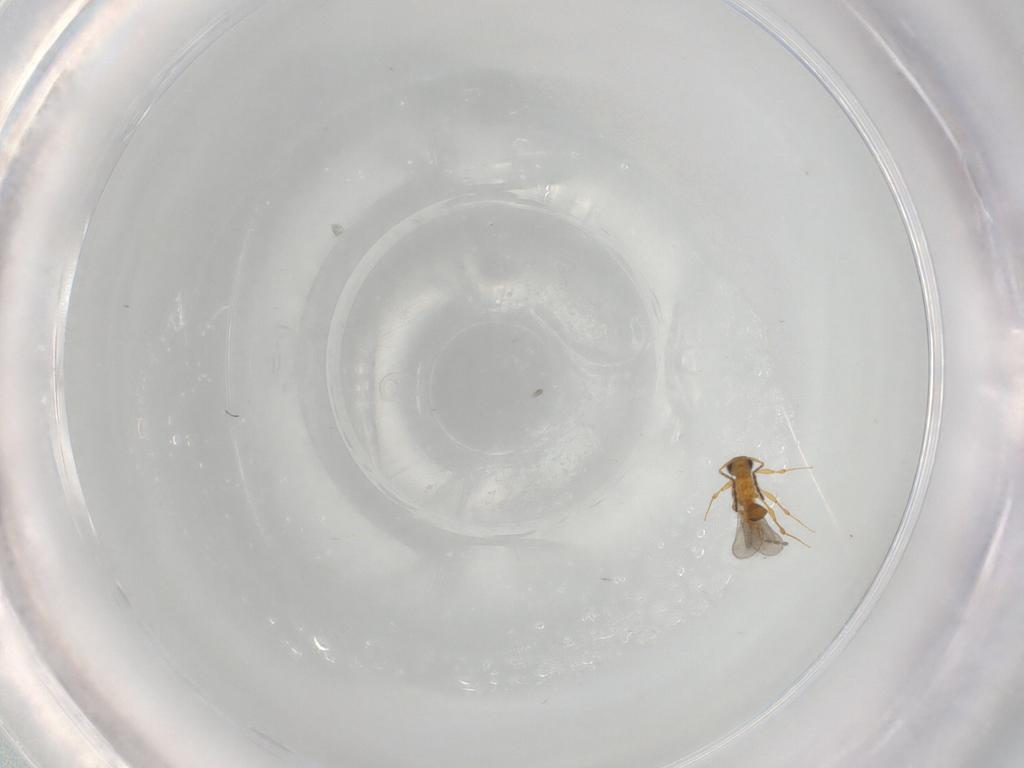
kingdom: Animalia
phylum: Arthropoda
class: Insecta
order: Hymenoptera
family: Platygastridae
